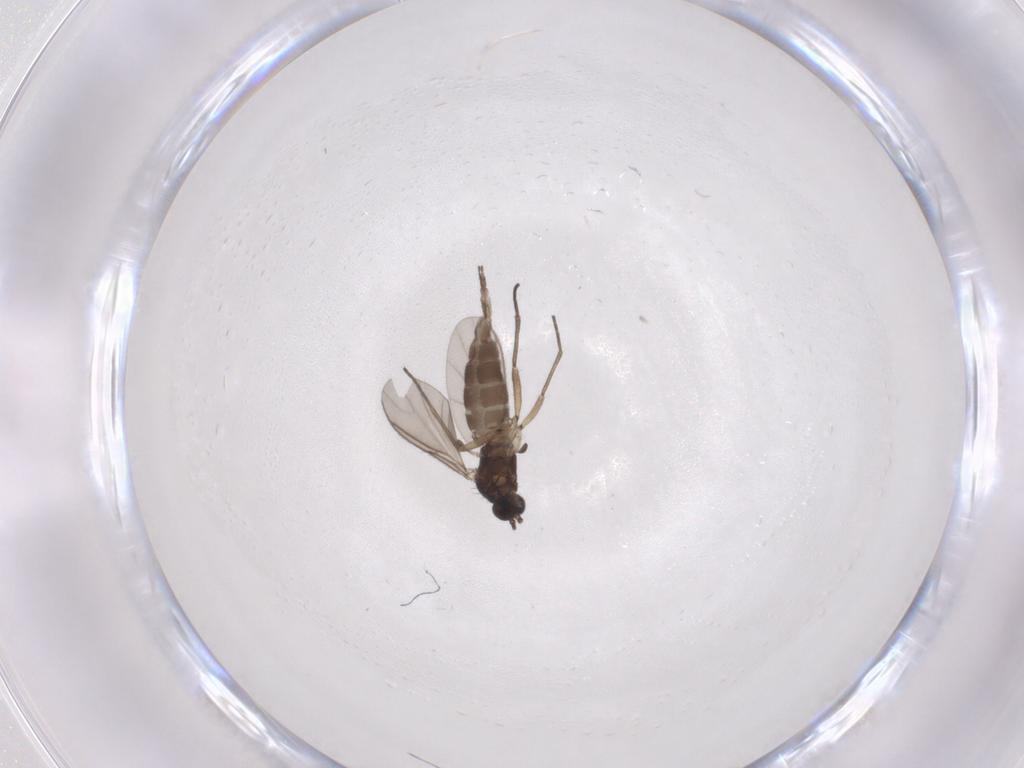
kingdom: Animalia
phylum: Arthropoda
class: Insecta
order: Diptera
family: Sciaridae
